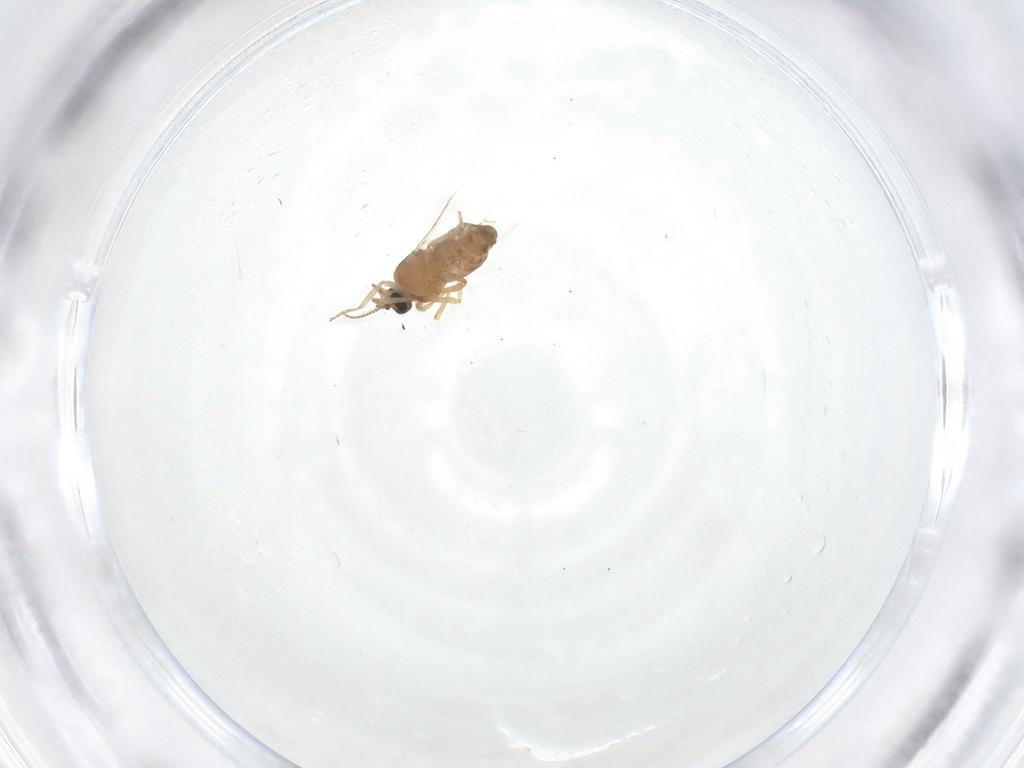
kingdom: Animalia
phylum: Arthropoda
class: Insecta
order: Diptera
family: Ceratopogonidae
